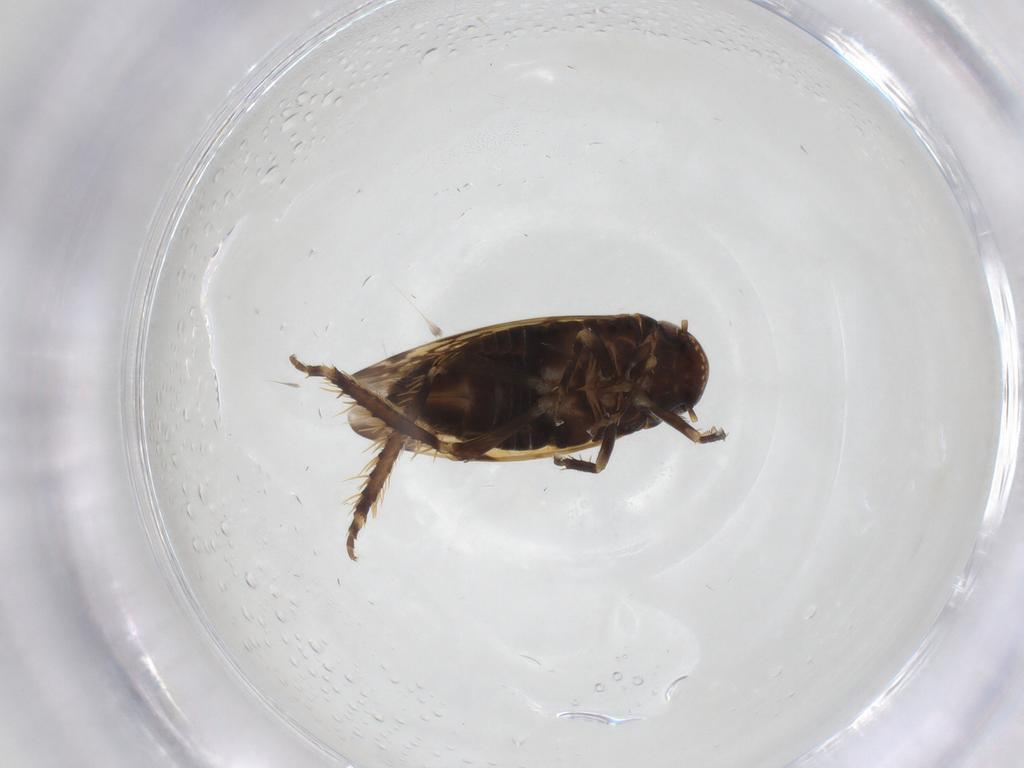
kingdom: Animalia
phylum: Arthropoda
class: Insecta
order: Hemiptera
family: Cicadellidae
